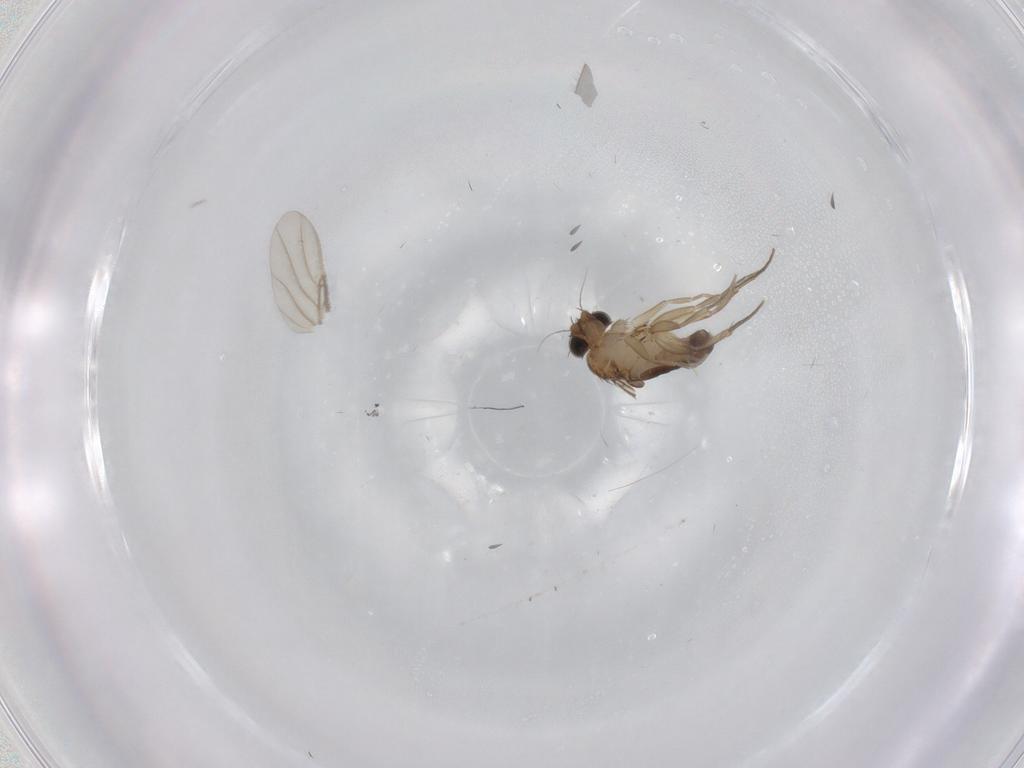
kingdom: Animalia
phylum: Arthropoda
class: Insecta
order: Diptera
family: Phoridae
